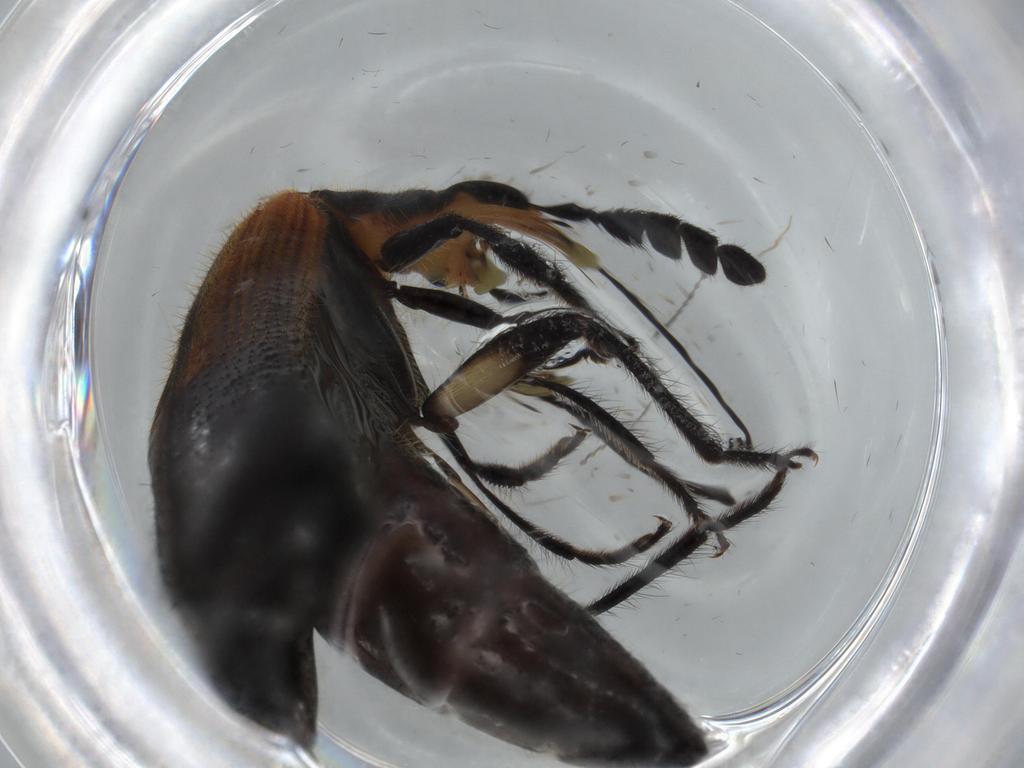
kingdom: Animalia
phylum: Arthropoda
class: Insecta
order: Coleoptera
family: Cleridae
